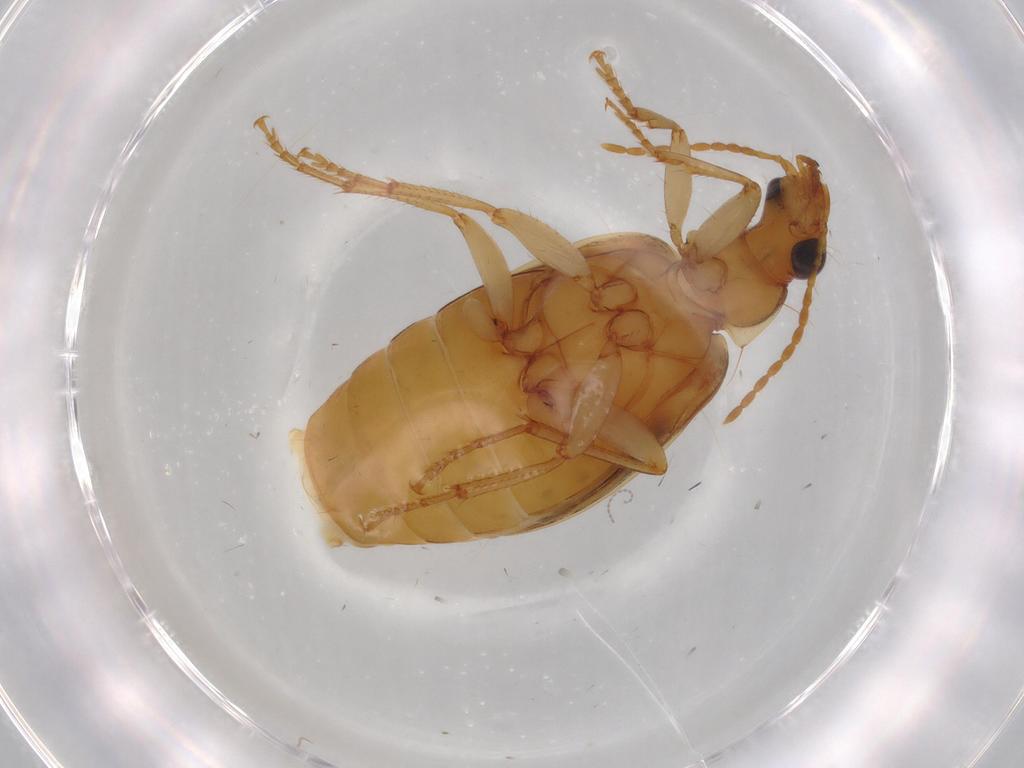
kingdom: Animalia
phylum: Arthropoda
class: Insecta
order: Coleoptera
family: Carabidae
